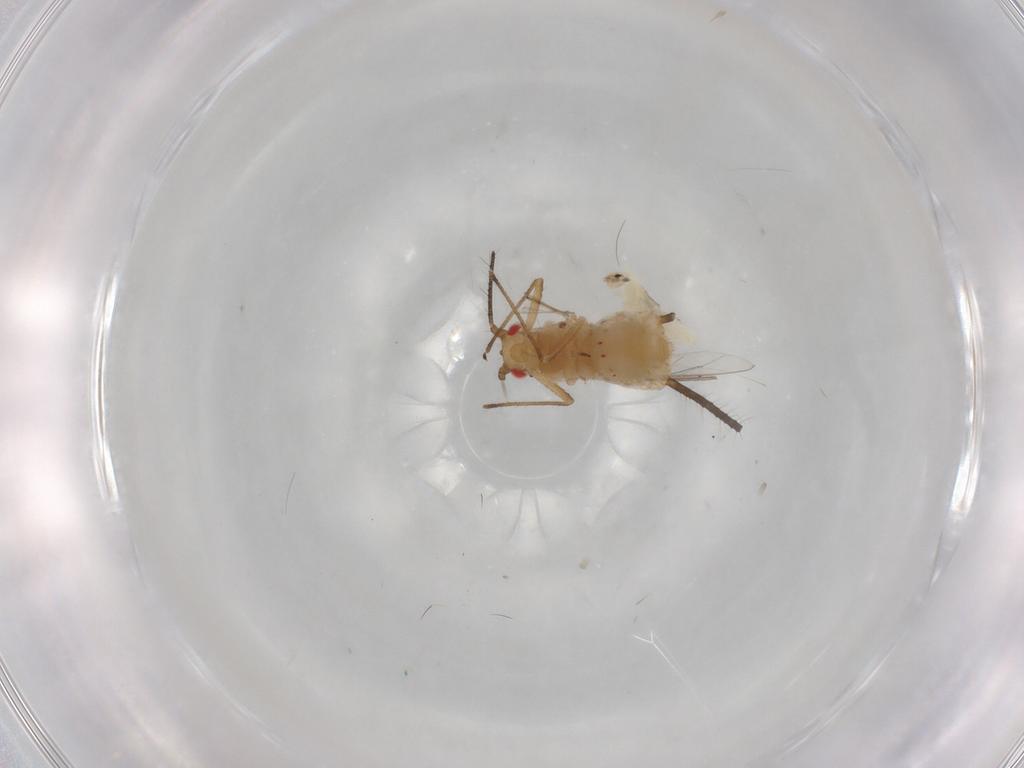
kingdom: Animalia
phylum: Arthropoda
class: Insecta
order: Hemiptera
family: Aphididae
